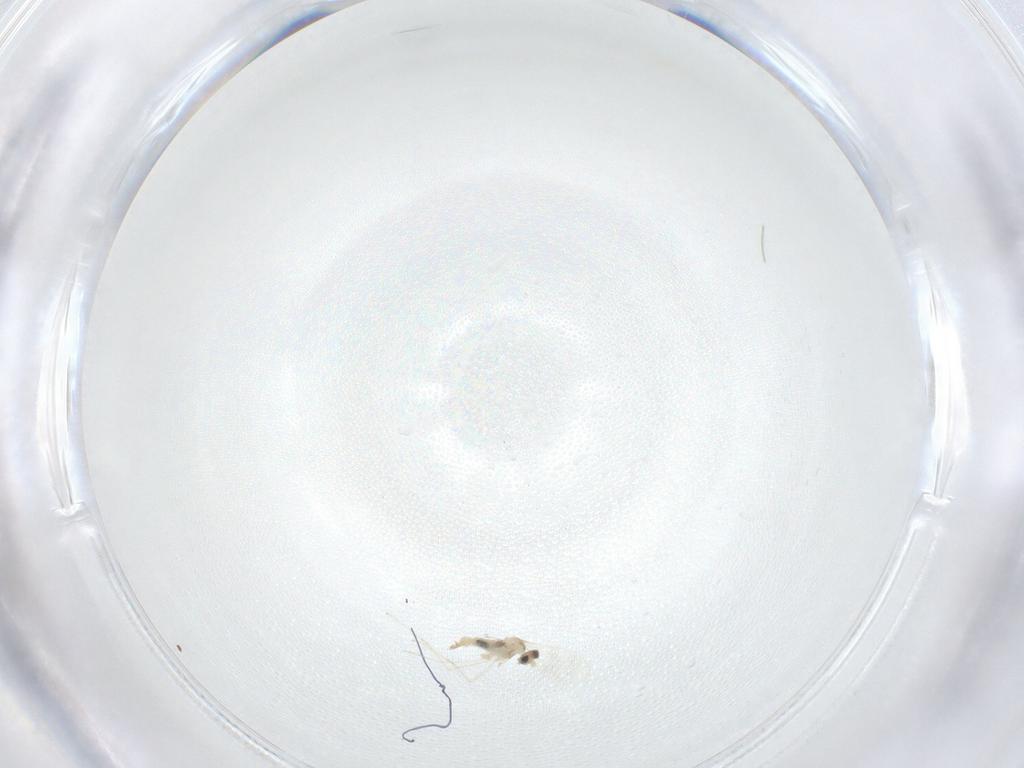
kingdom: Animalia
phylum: Arthropoda
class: Insecta
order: Diptera
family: Cecidomyiidae
